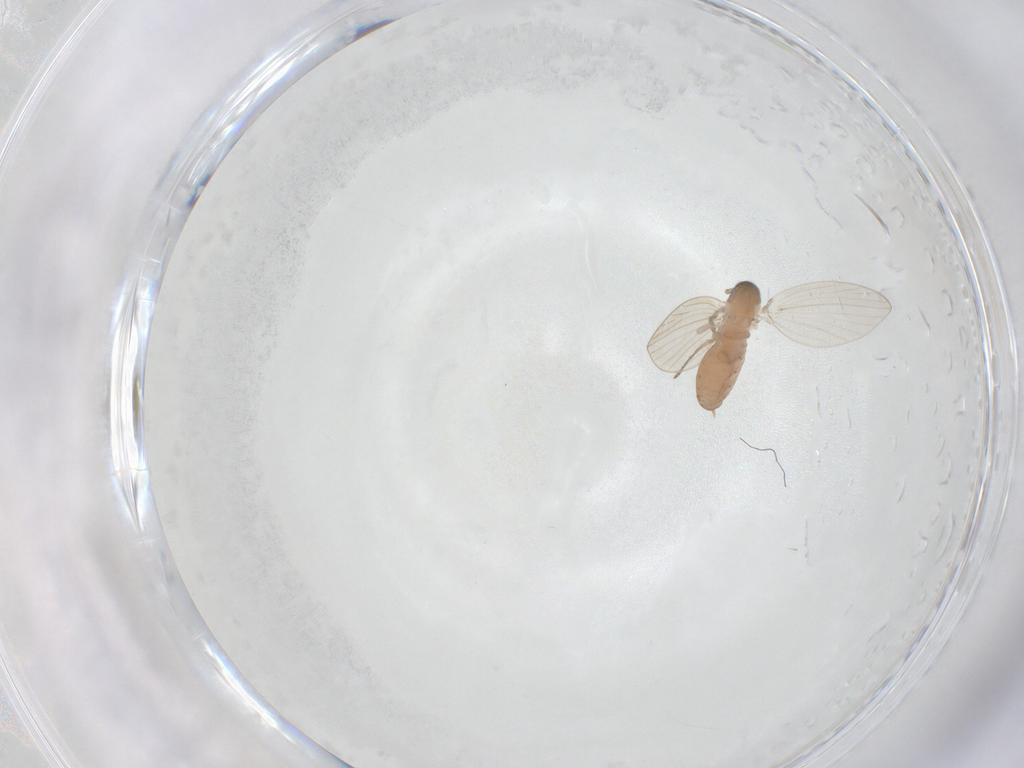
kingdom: Animalia
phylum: Arthropoda
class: Insecta
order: Diptera
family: Psychodidae
